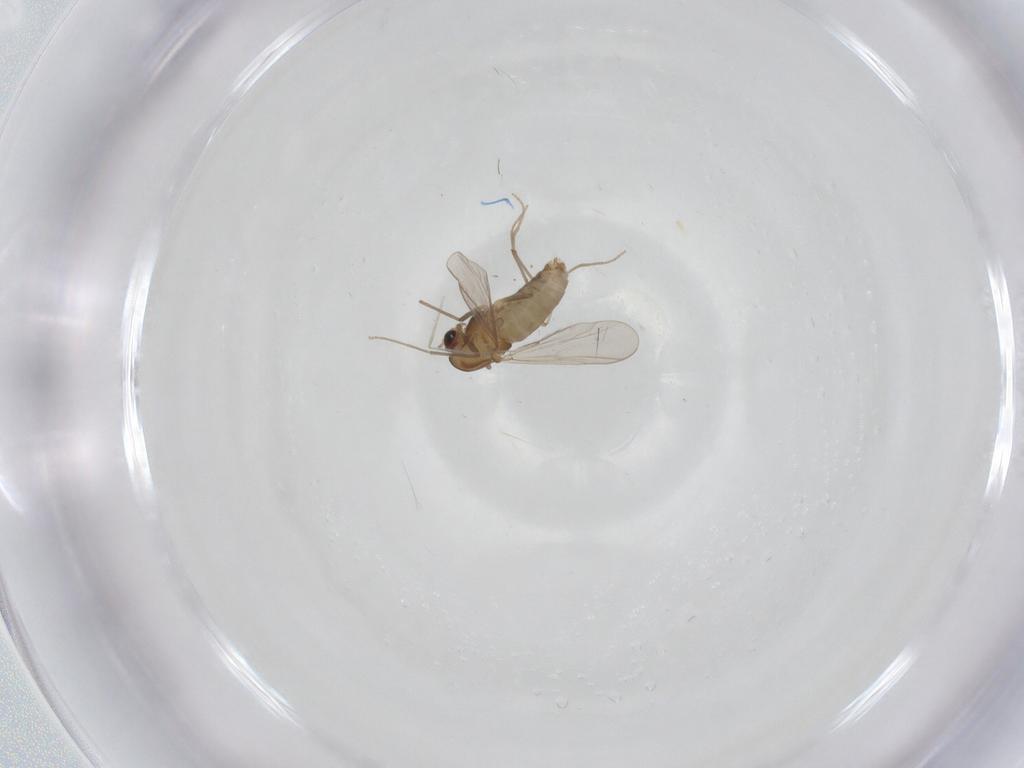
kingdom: Animalia
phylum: Arthropoda
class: Insecta
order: Diptera
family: Chironomidae
